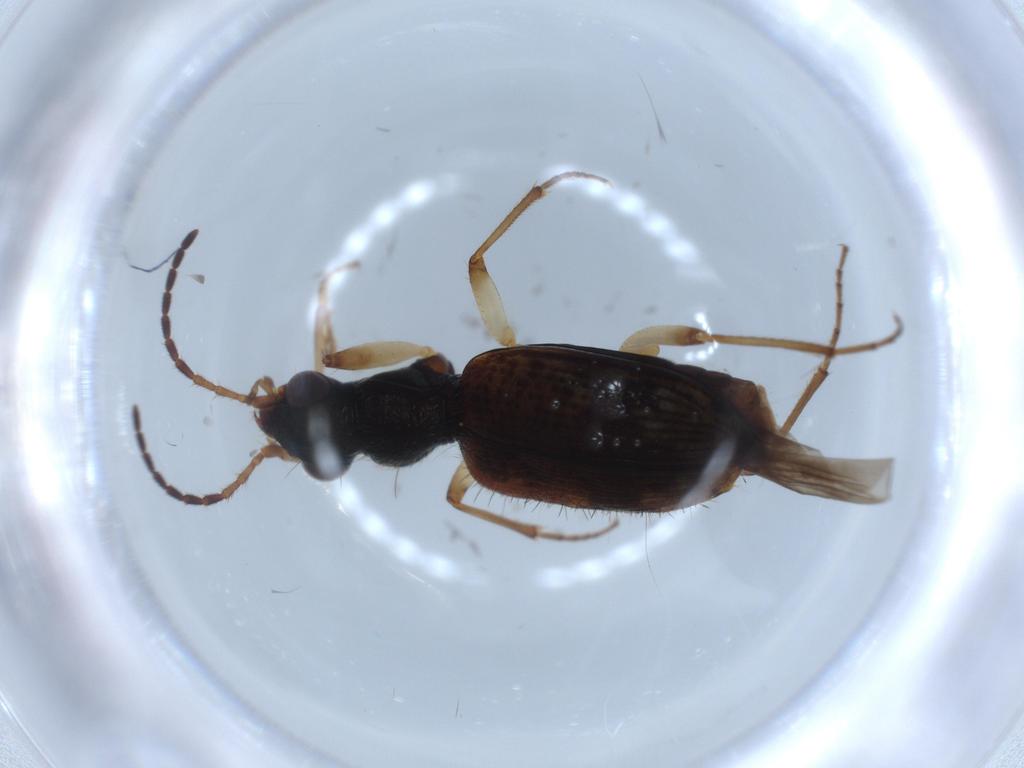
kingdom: Animalia
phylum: Arthropoda
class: Insecta
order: Coleoptera
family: Carabidae
